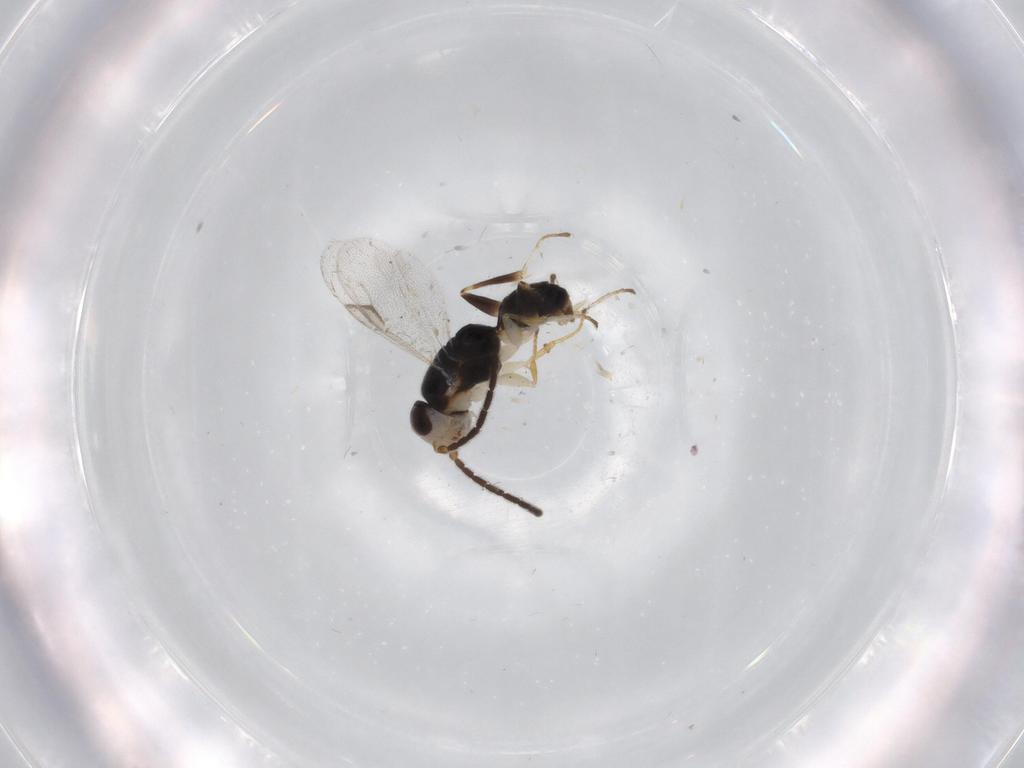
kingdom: Animalia
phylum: Arthropoda
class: Insecta
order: Hymenoptera
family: Dryinidae
